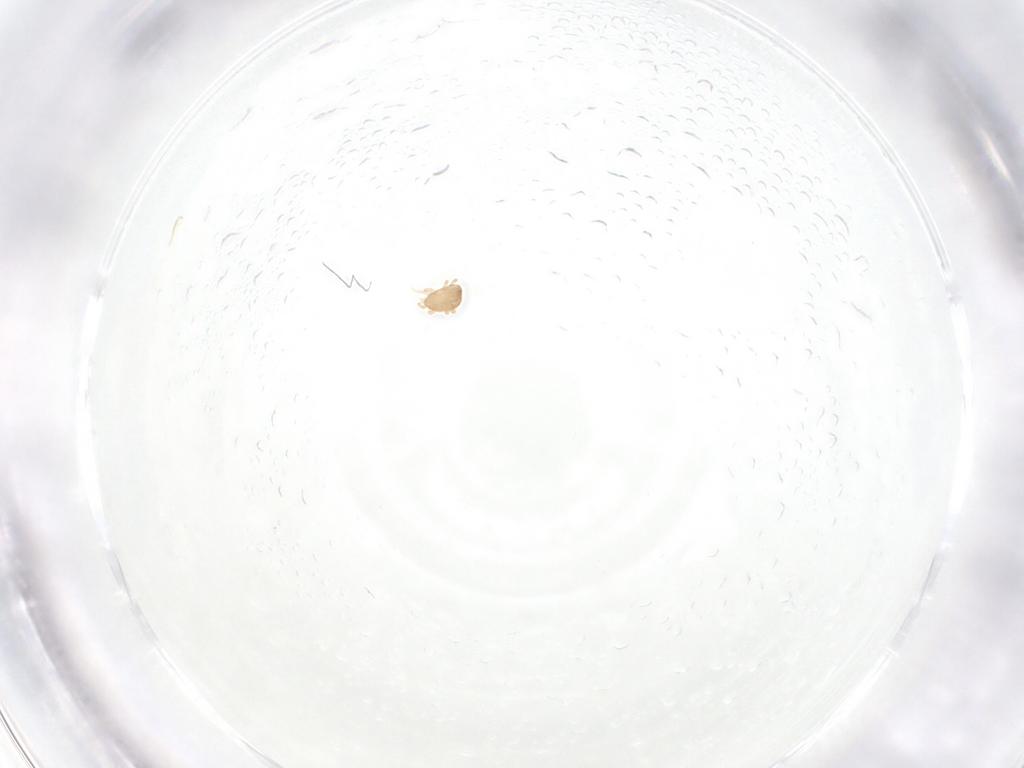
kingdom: Animalia
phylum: Arthropoda
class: Arachnida
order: Mesostigmata
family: Ascidae
